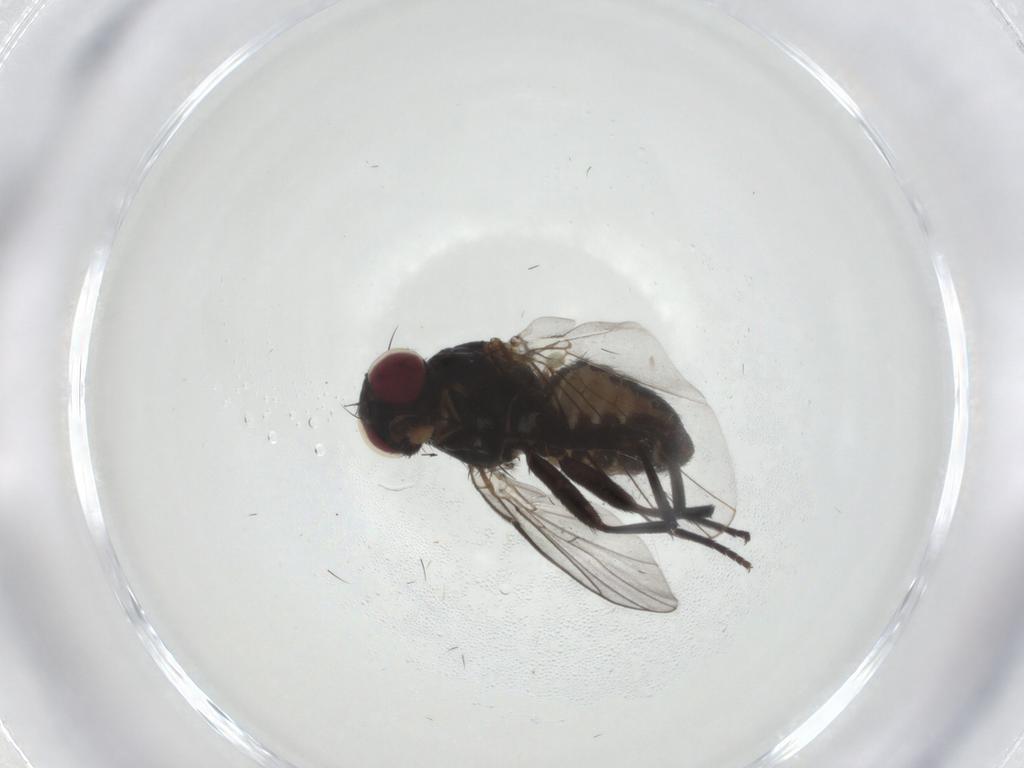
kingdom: Animalia
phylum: Arthropoda
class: Insecta
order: Diptera
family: Agromyzidae
